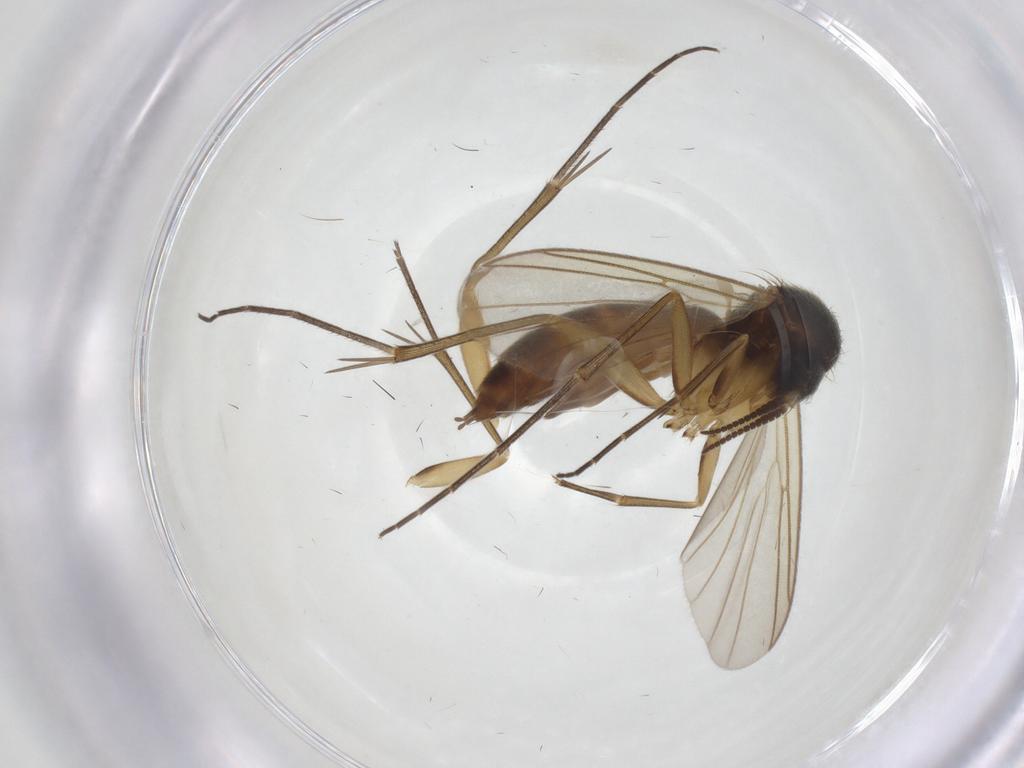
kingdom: Animalia
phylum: Arthropoda
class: Insecta
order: Diptera
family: Mycetophilidae
